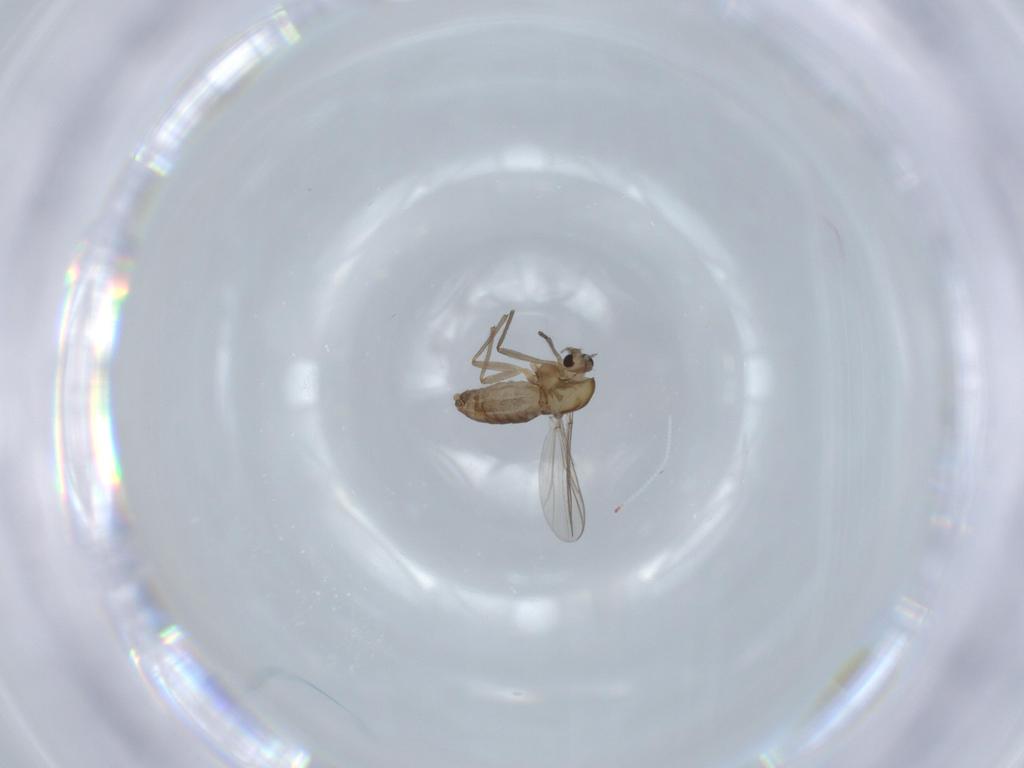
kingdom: Animalia
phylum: Arthropoda
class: Insecta
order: Diptera
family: Chironomidae
